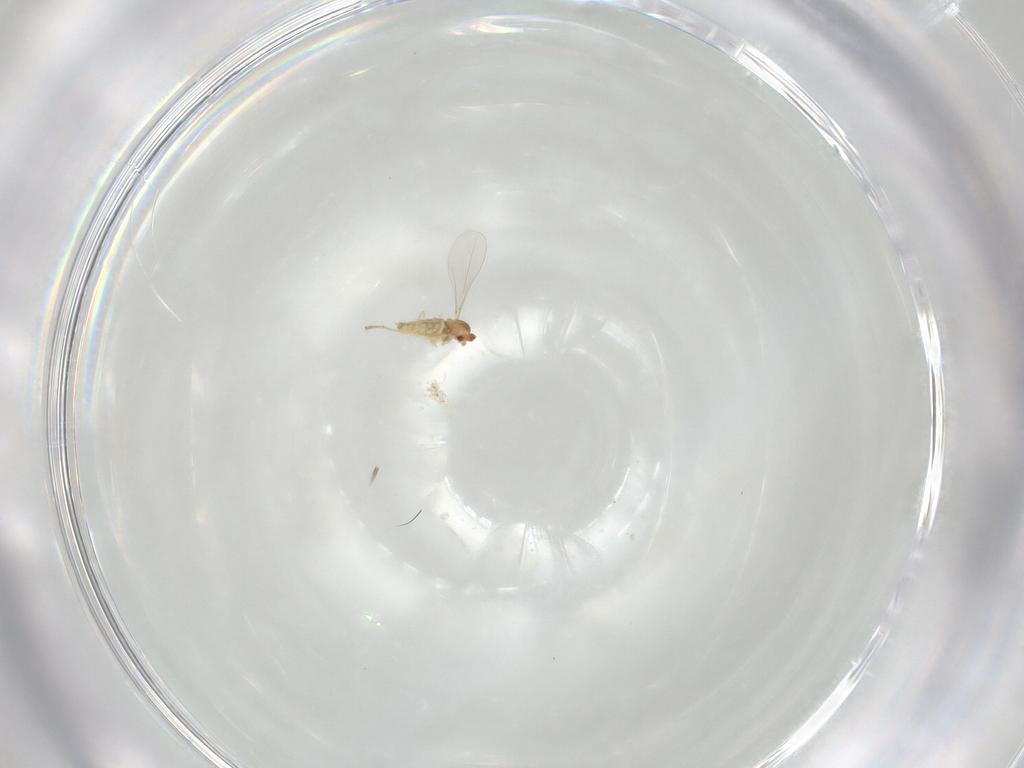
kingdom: Animalia
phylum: Arthropoda
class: Insecta
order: Diptera
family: Cecidomyiidae
